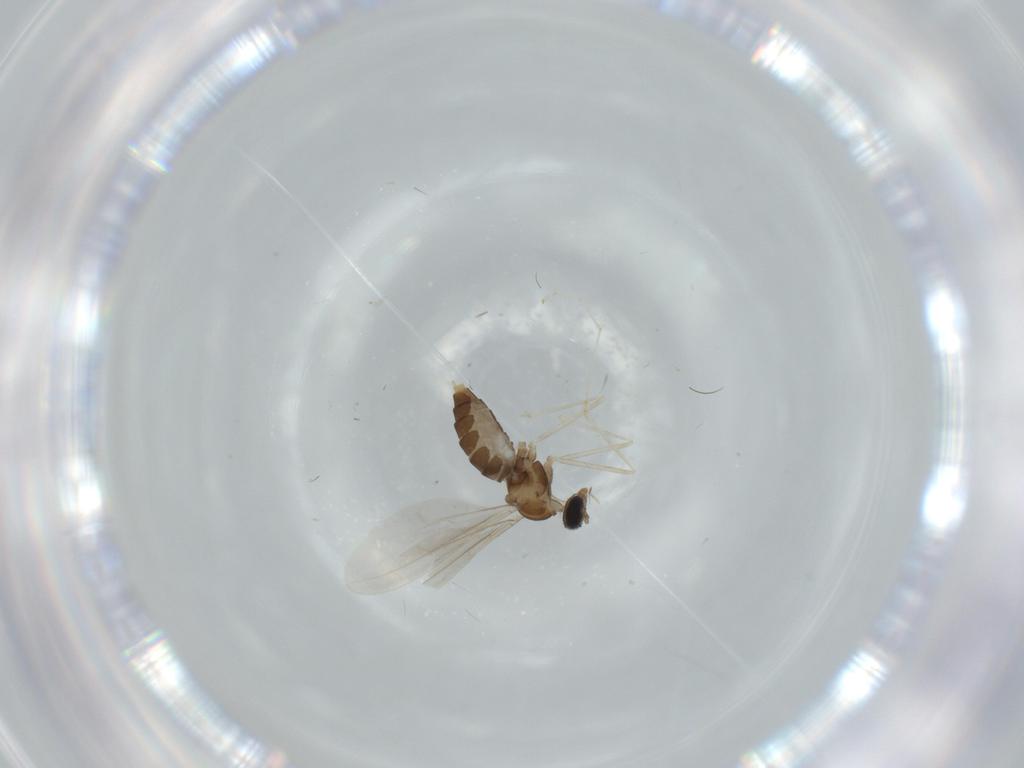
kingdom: Animalia
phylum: Arthropoda
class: Insecta
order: Diptera
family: Cecidomyiidae
